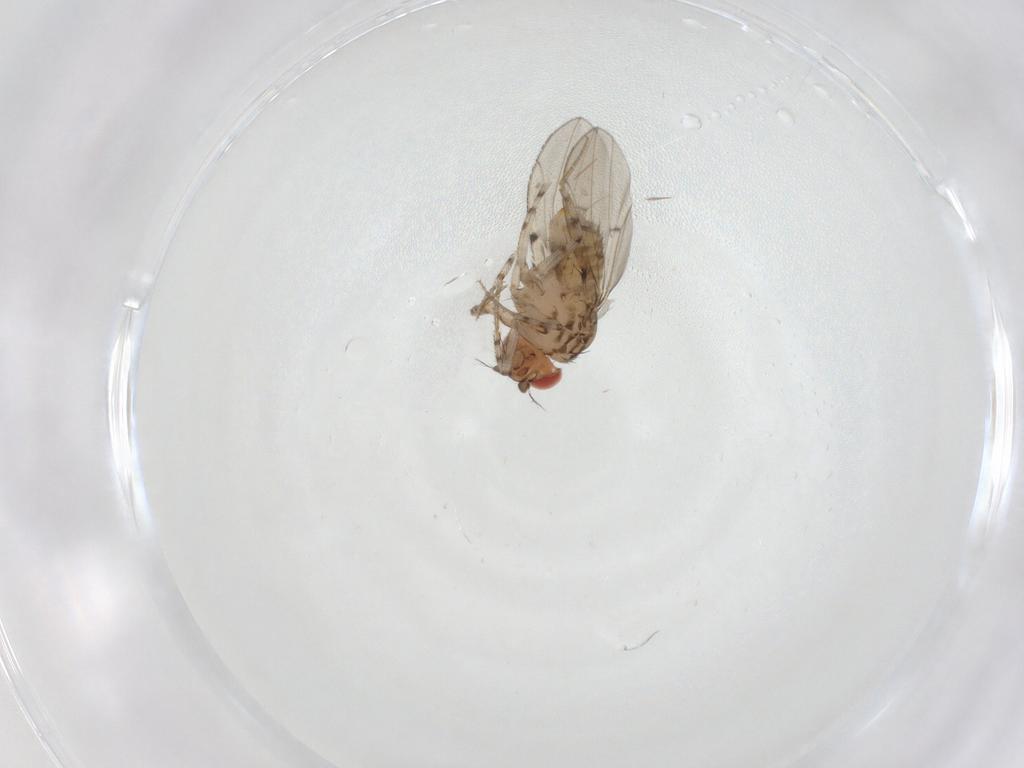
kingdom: Animalia
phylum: Arthropoda
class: Insecta
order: Diptera
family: Drosophilidae
